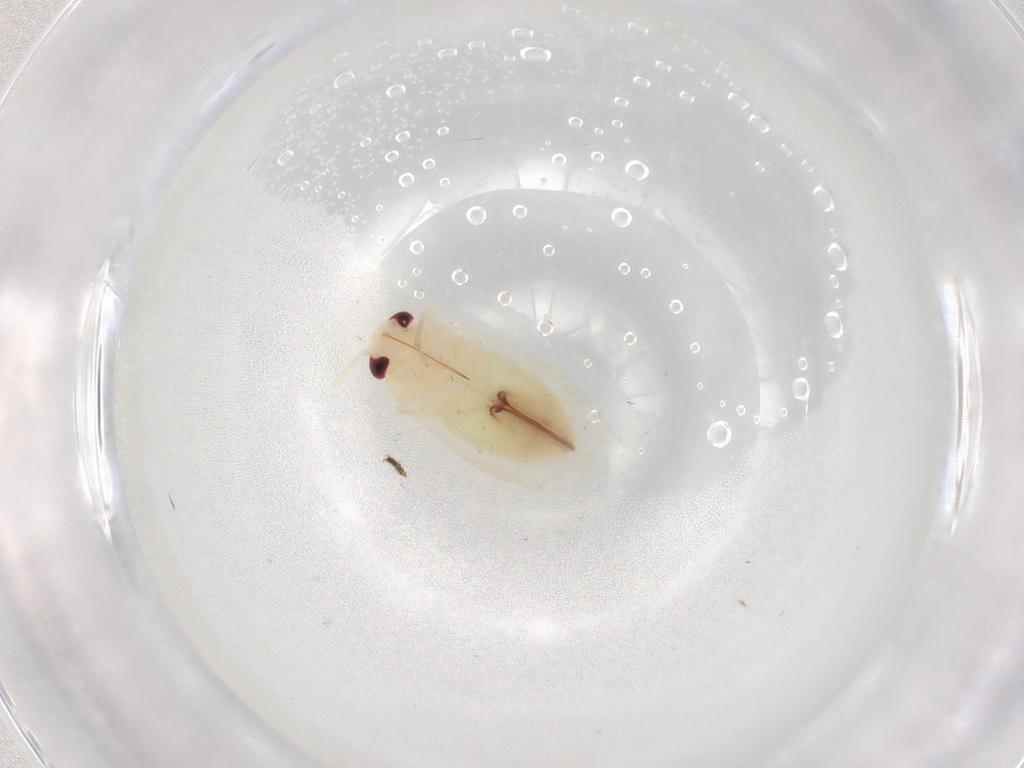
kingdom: Animalia
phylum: Arthropoda
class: Insecta
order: Hemiptera
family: Miridae
